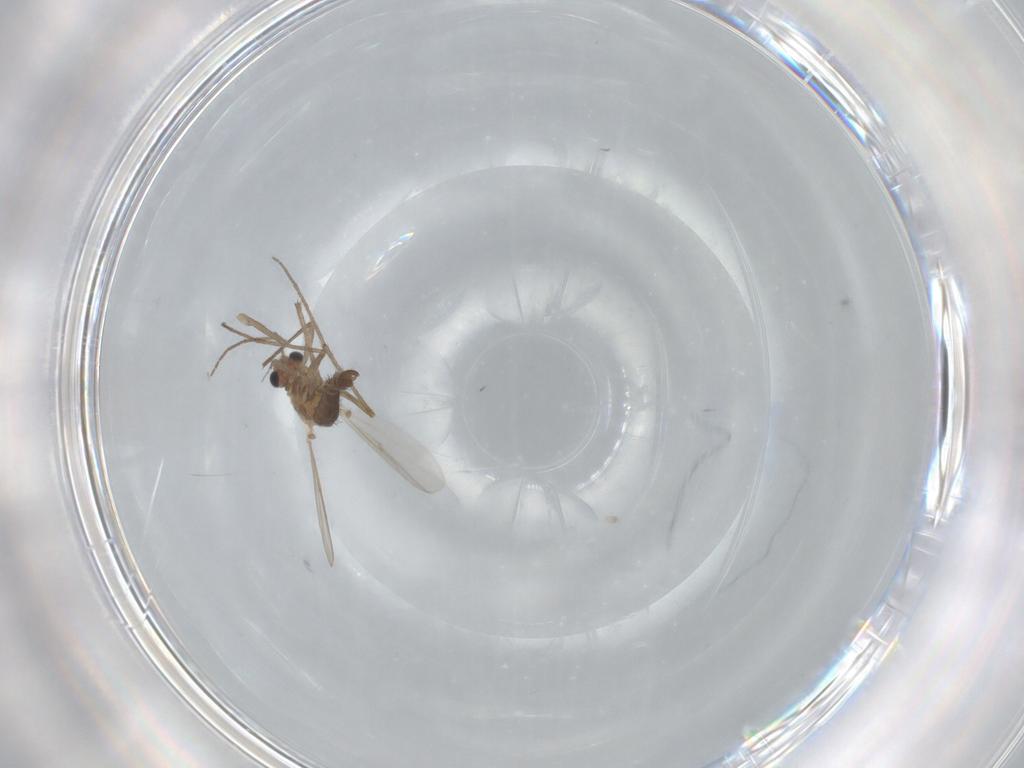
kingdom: Animalia
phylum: Arthropoda
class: Insecta
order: Diptera
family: Chironomidae
